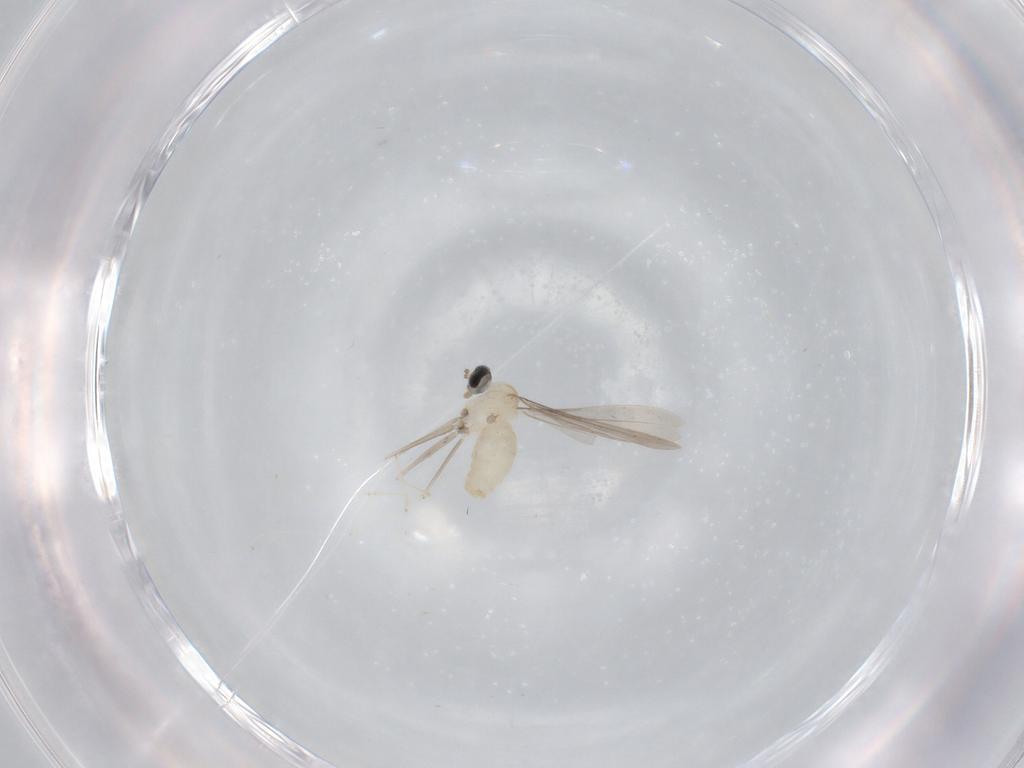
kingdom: Animalia
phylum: Arthropoda
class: Insecta
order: Diptera
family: Cecidomyiidae
